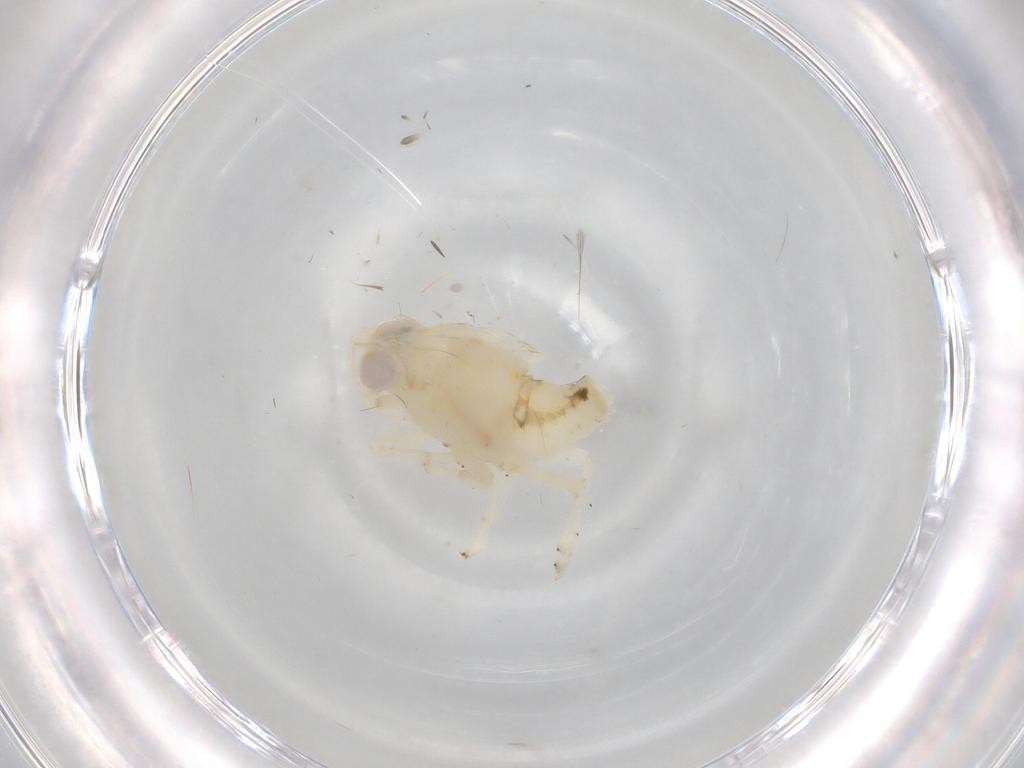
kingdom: Animalia
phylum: Arthropoda
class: Insecta
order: Hemiptera
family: Nogodinidae
